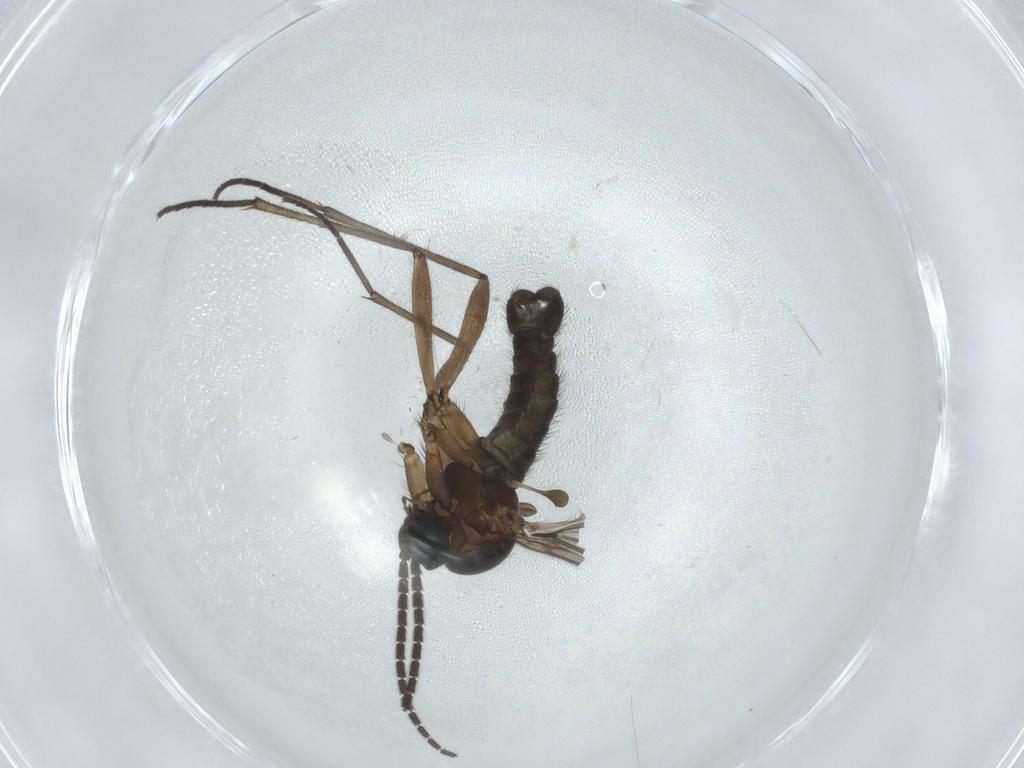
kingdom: Animalia
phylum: Arthropoda
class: Insecta
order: Diptera
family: Sciaridae
